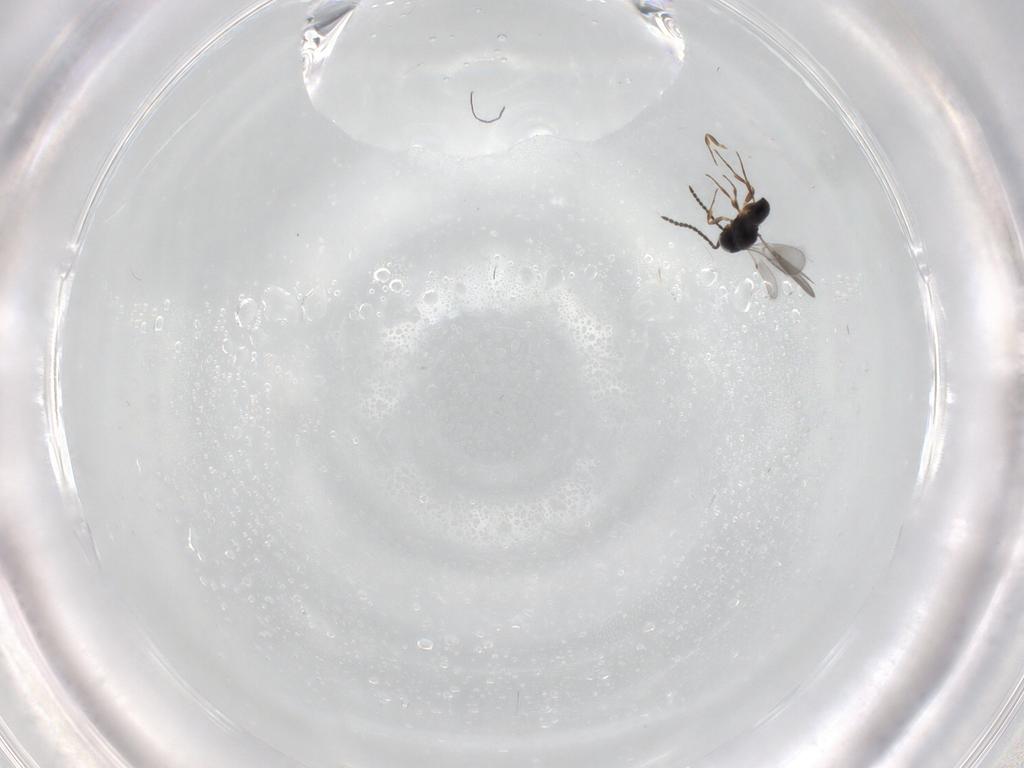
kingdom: Animalia
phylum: Arthropoda
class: Insecta
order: Hymenoptera
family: Scelionidae
